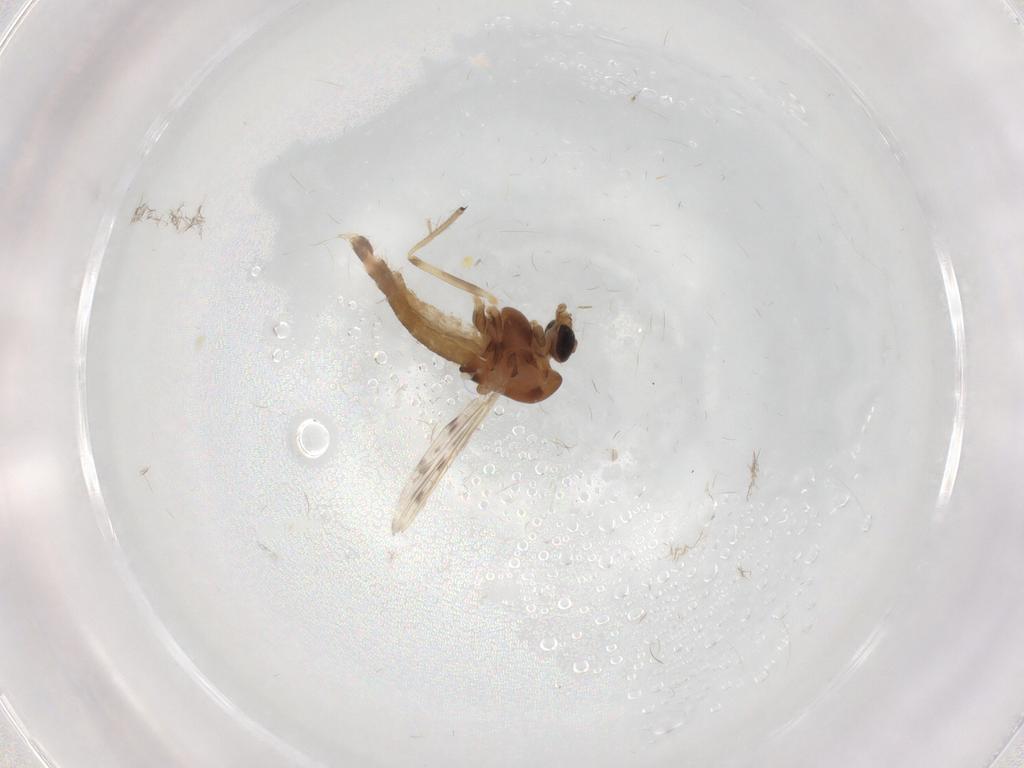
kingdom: Animalia
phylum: Arthropoda
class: Insecta
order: Diptera
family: Chironomidae
